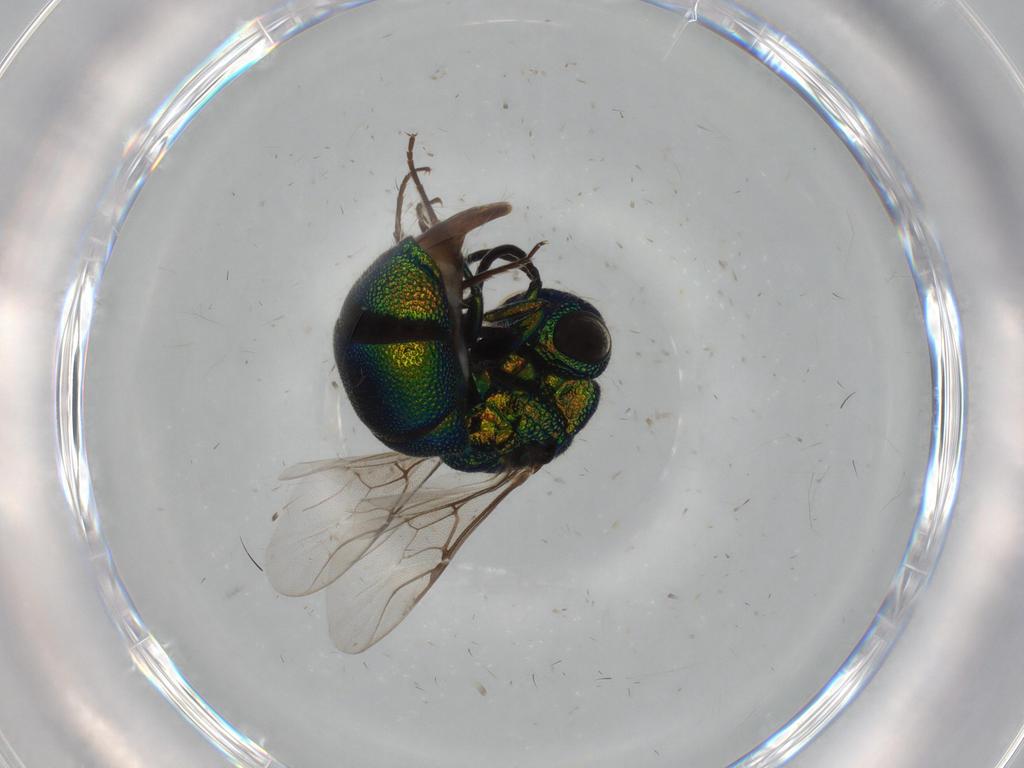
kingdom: Animalia
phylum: Arthropoda
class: Insecta
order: Hymenoptera
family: Chrysididae
